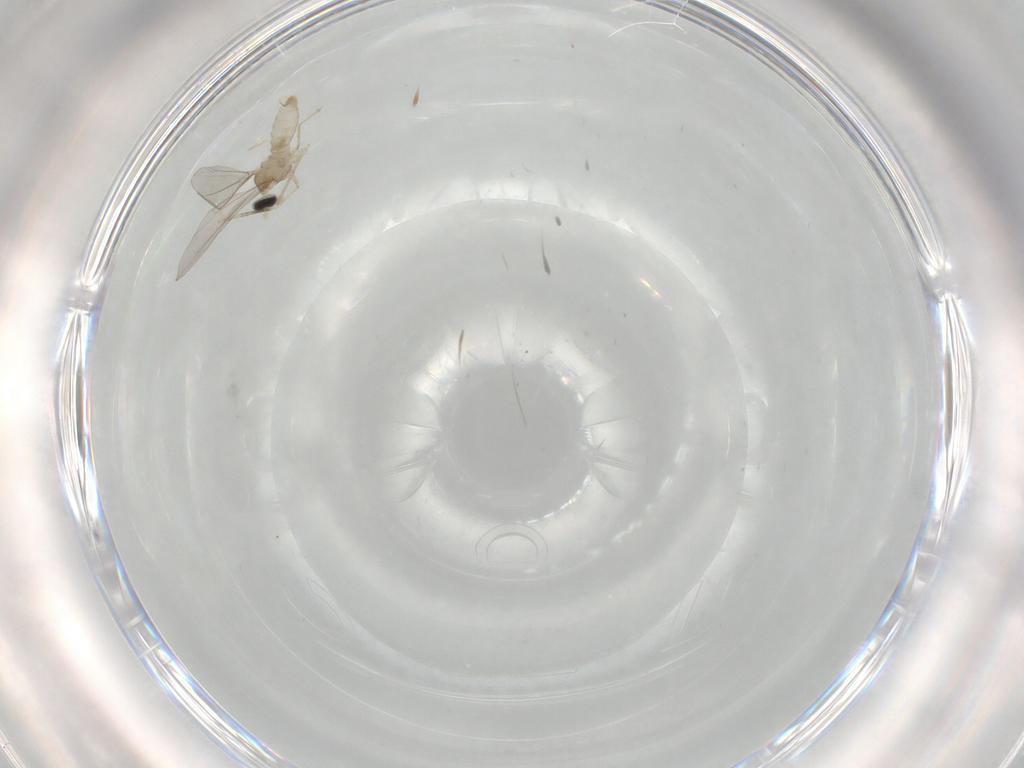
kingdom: Animalia
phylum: Arthropoda
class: Insecta
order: Diptera
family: Cecidomyiidae
